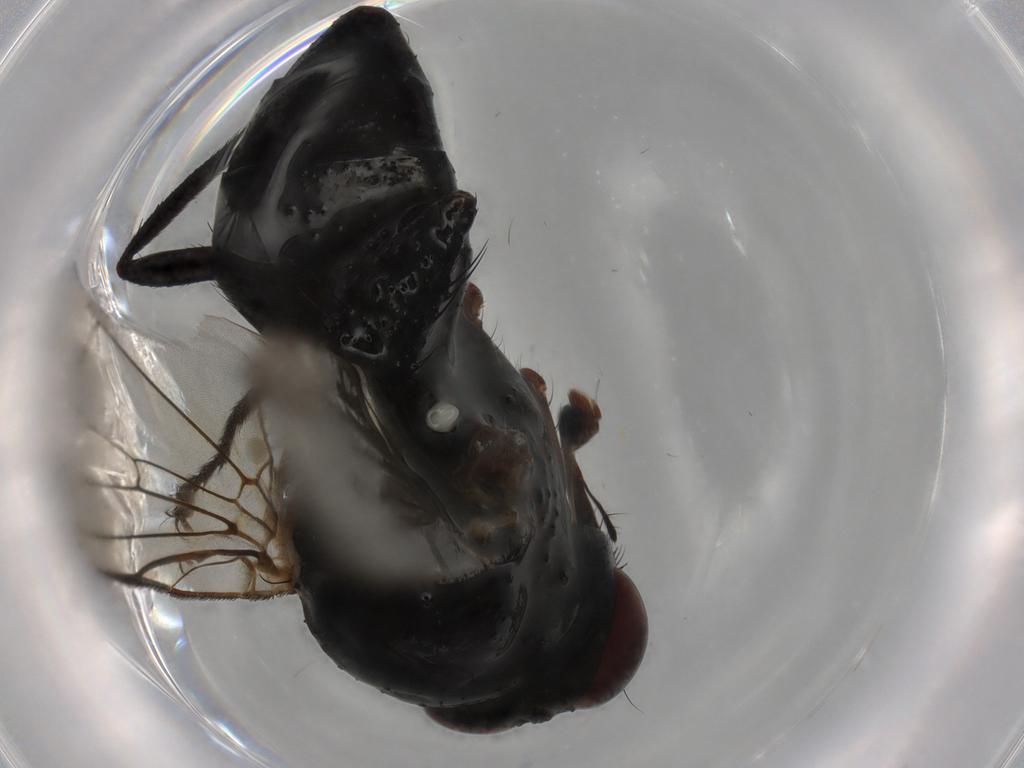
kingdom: Animalia
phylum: Arthropoda
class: Insecta
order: Diptera
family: Anthomyiidae
